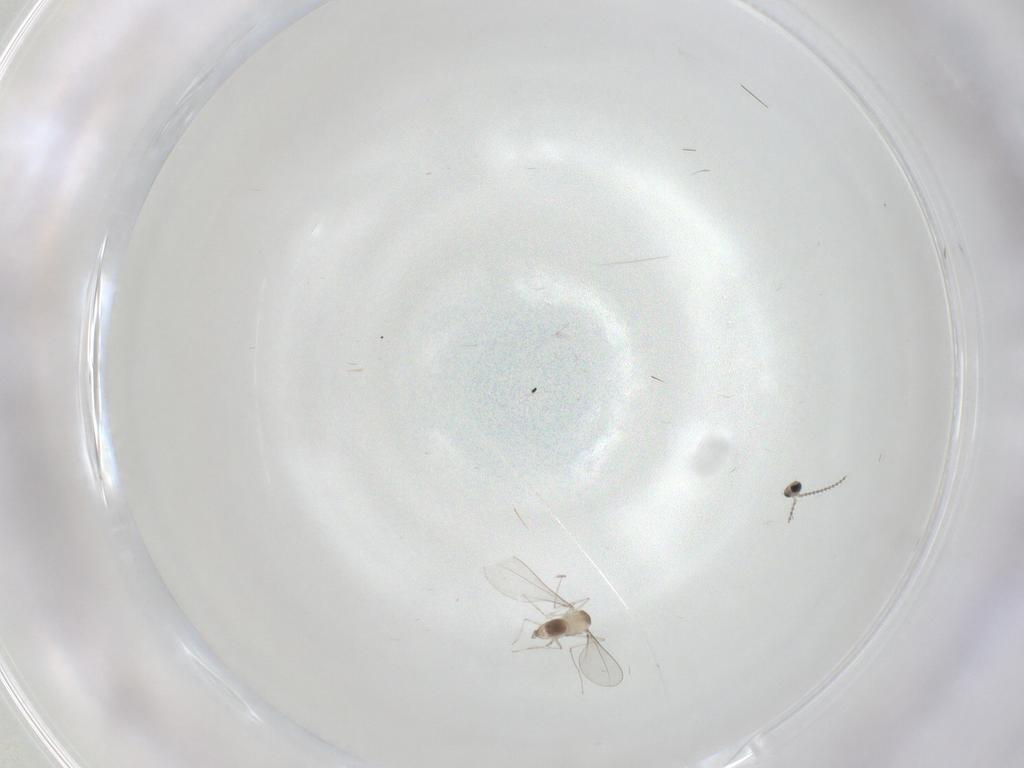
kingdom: Animalia
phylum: Arthropoda
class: Insecta
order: Diptera
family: Cecidomyiidae
